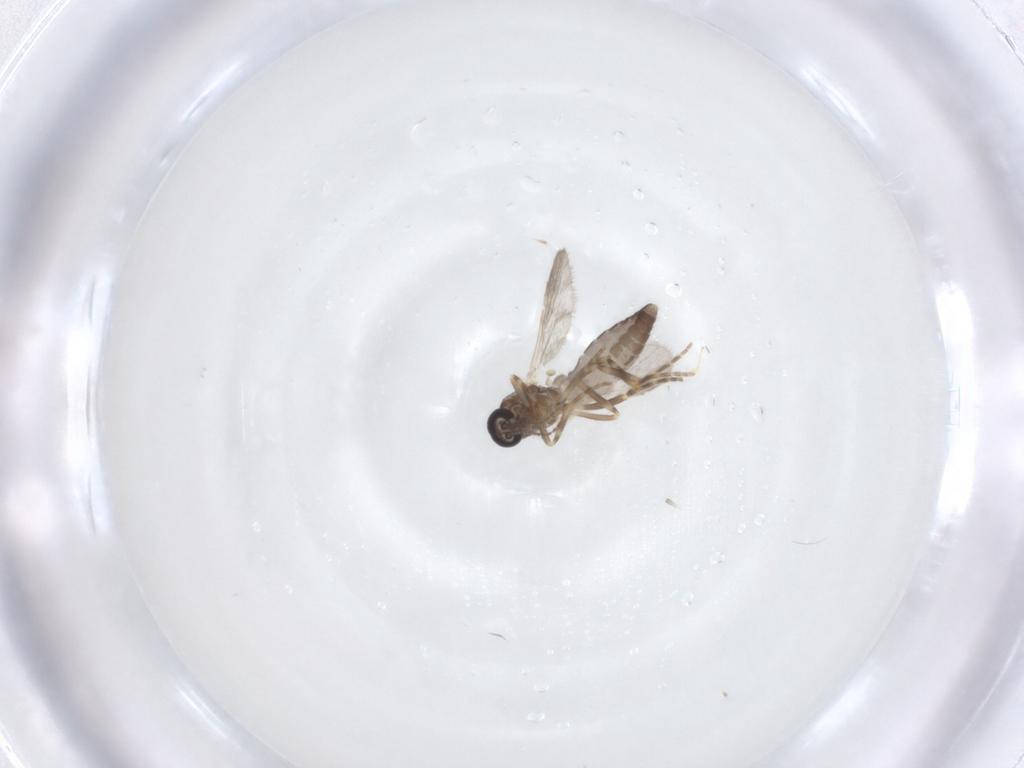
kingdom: Animalia
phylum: Arthropoda
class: Insecta
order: Diptera
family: Ceratopogonidae
